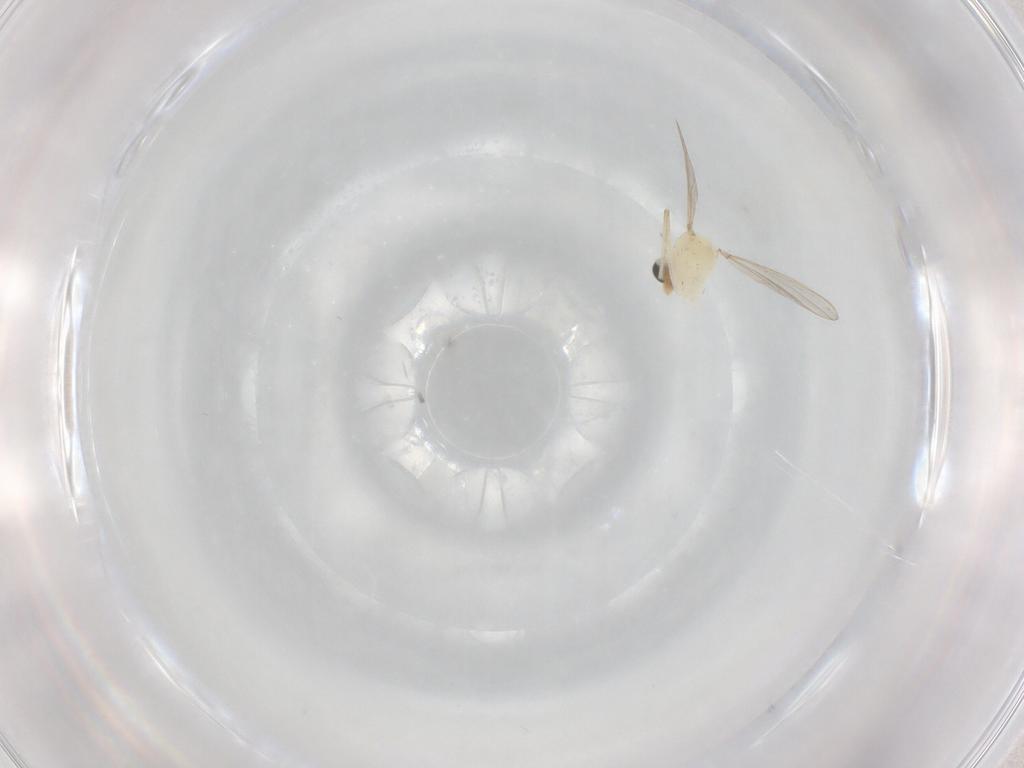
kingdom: Animalia
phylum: Arthropoda
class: Insecta
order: Diptera
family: Chironomidae
